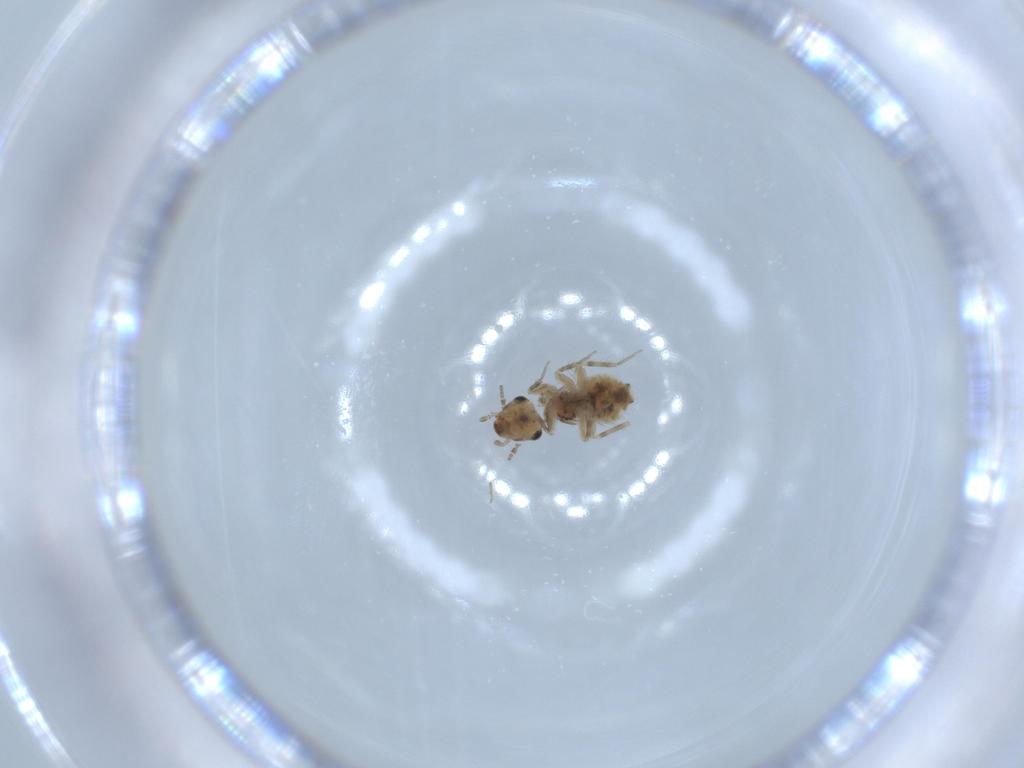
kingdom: Animalia
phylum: Arthropoda
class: Insecta
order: Psocodea
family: Lepidopsocidae
